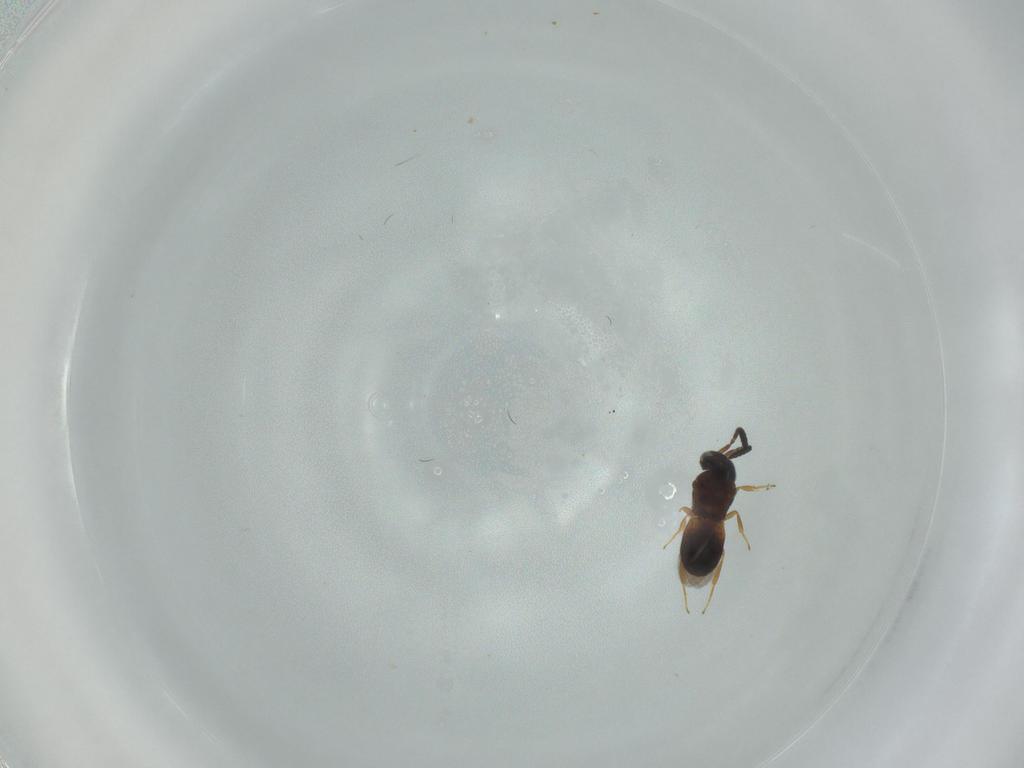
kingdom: Animalia
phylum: Arthropoda
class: Insecta
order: Hymenoptera
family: Scelionidae
